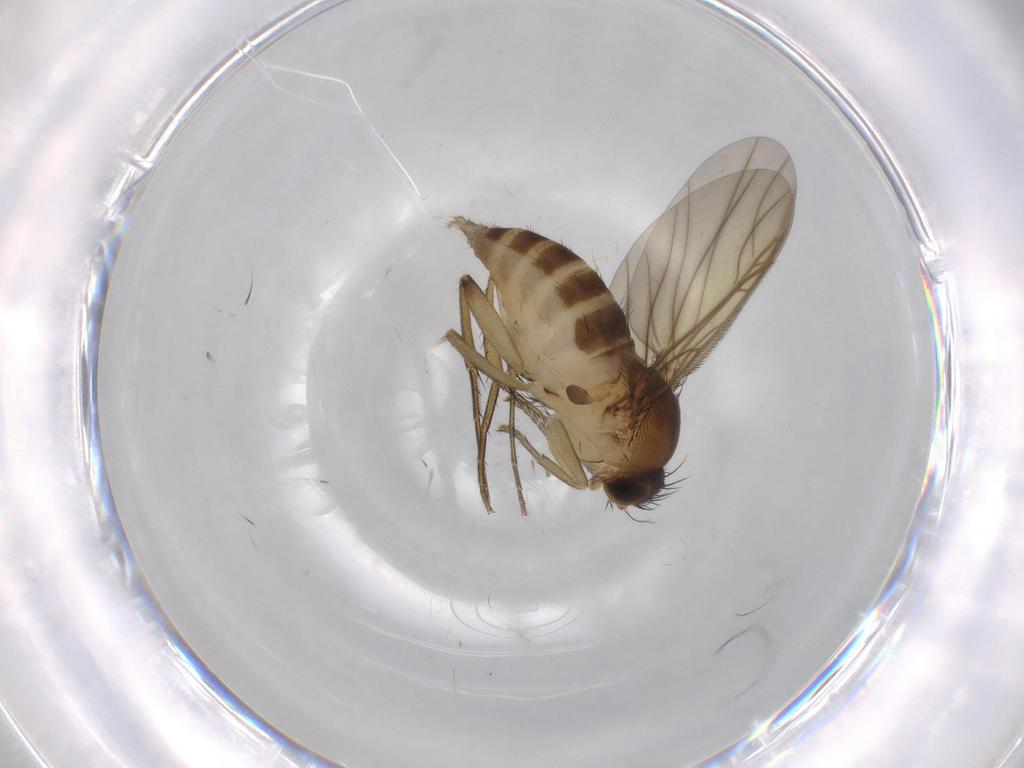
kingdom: Animalia
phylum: Arthropoda
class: Insecta
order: Diptera
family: Phoridae
